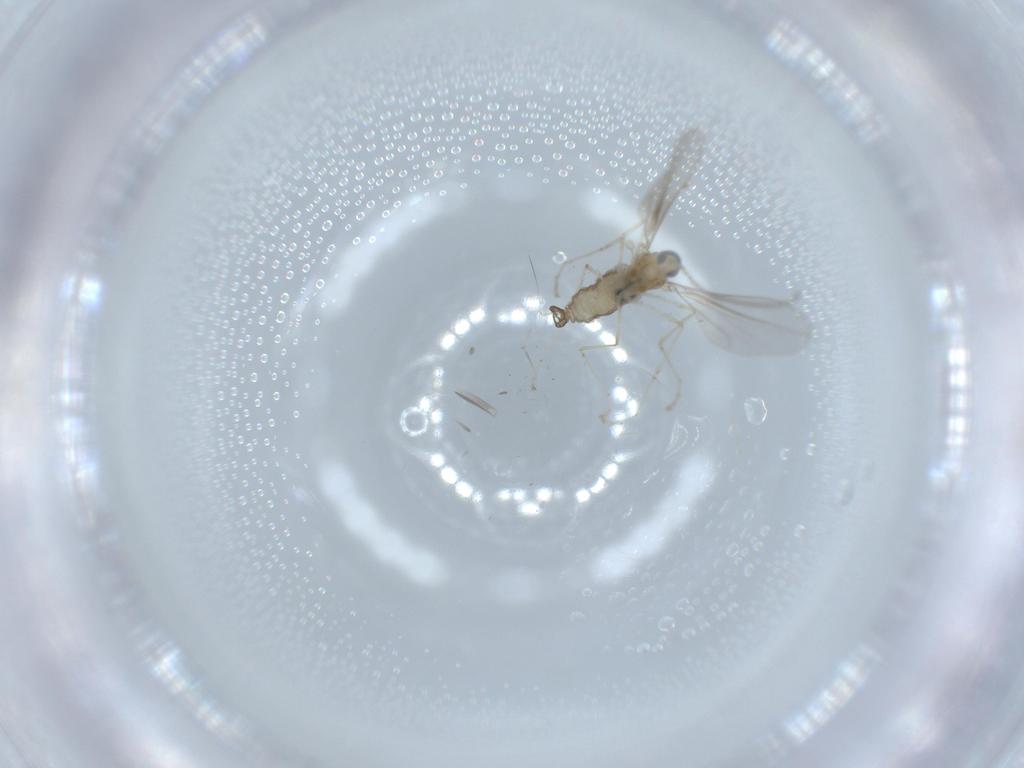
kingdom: Animalia
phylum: Arthropoda
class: Insecta
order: Diptera
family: Cecidomyiidae
